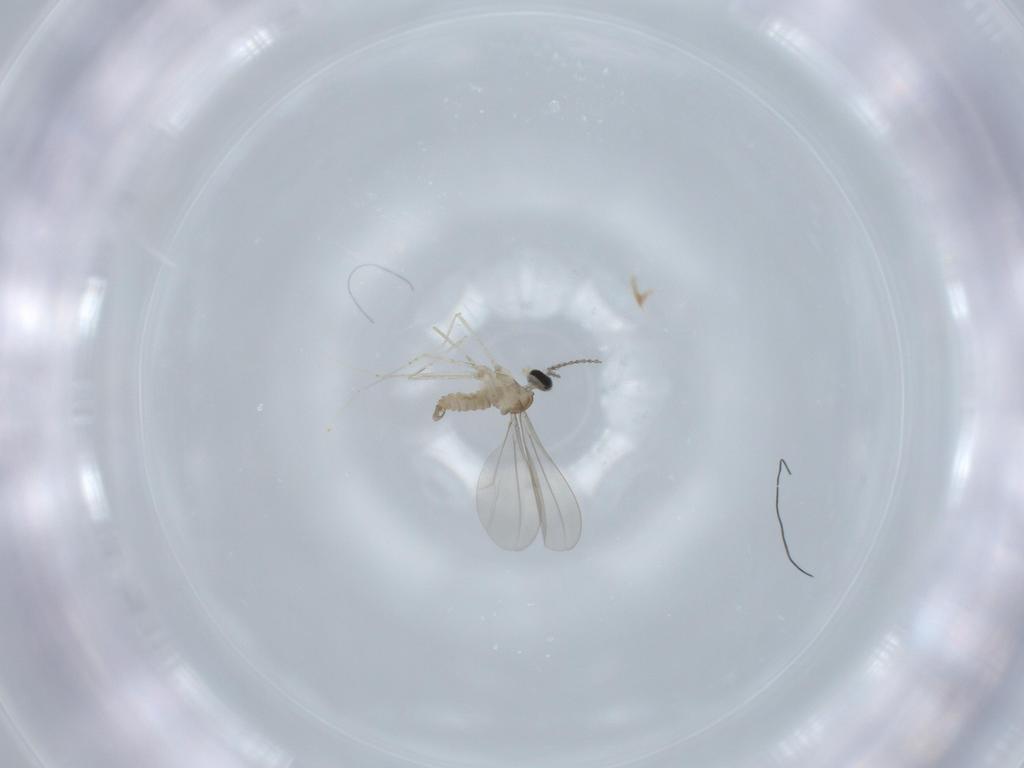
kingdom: Animalia
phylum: Arthropoda
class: Insecta
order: Diptera
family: Cecidomyiidae
